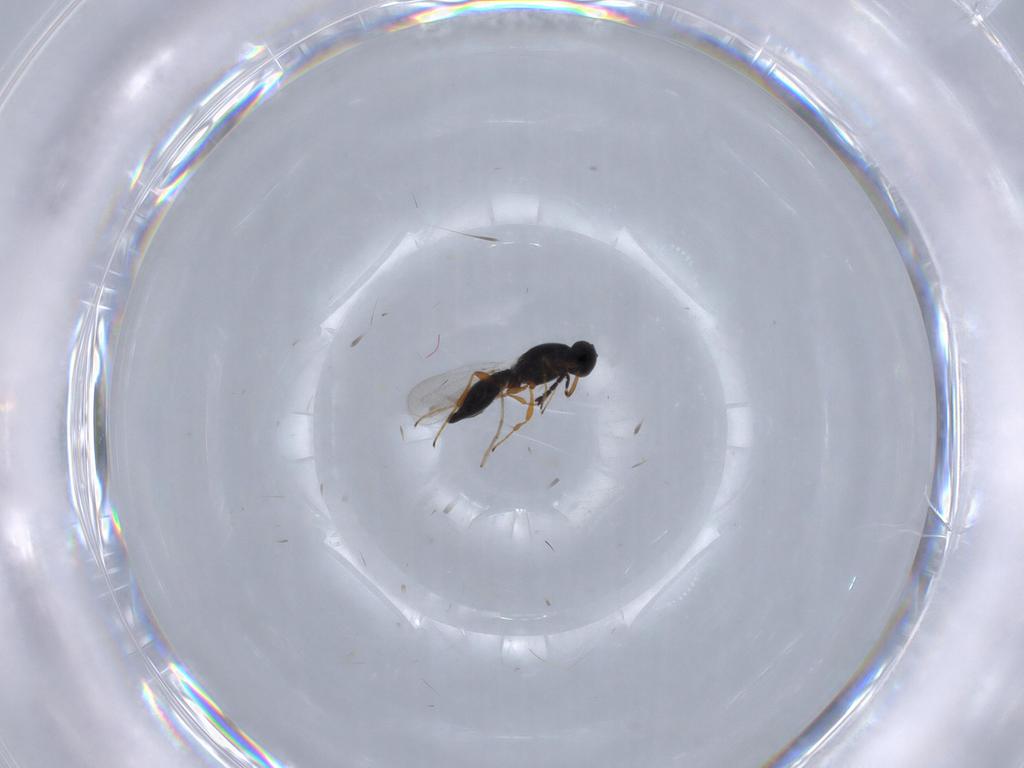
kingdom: Animalia
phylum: Arthropoda
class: Insecta
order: Hymenoptera
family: Platygastridae
